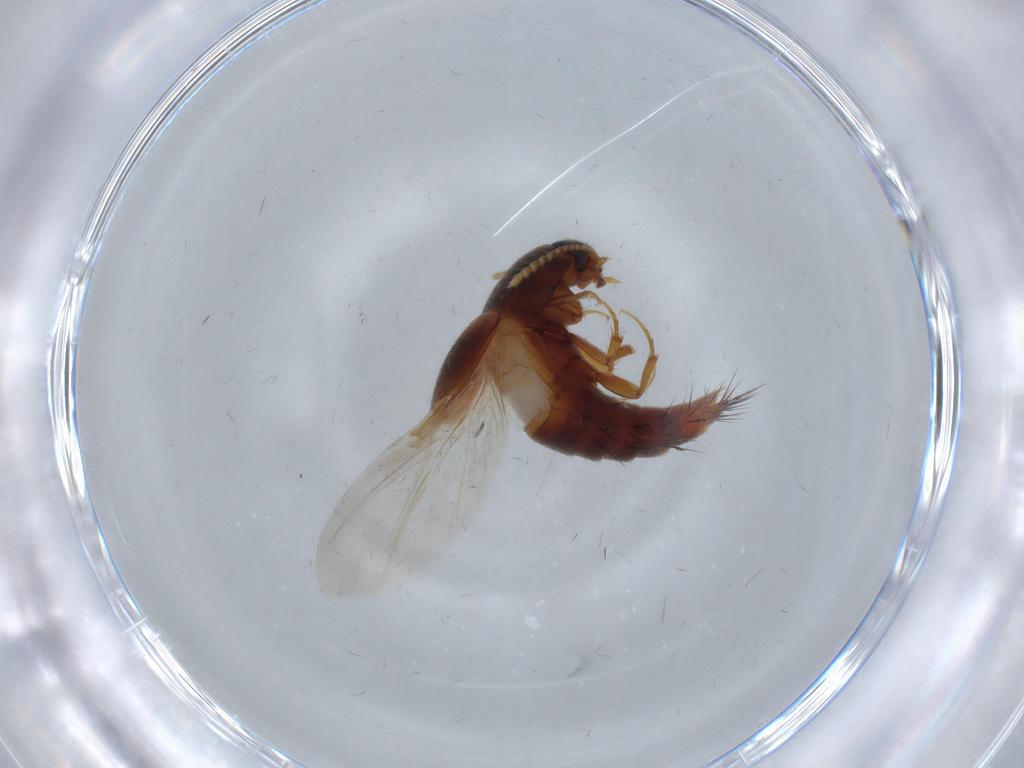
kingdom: Animalia
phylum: Arthropoda
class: Insecta
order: Coleoptera
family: Staphylinidae
